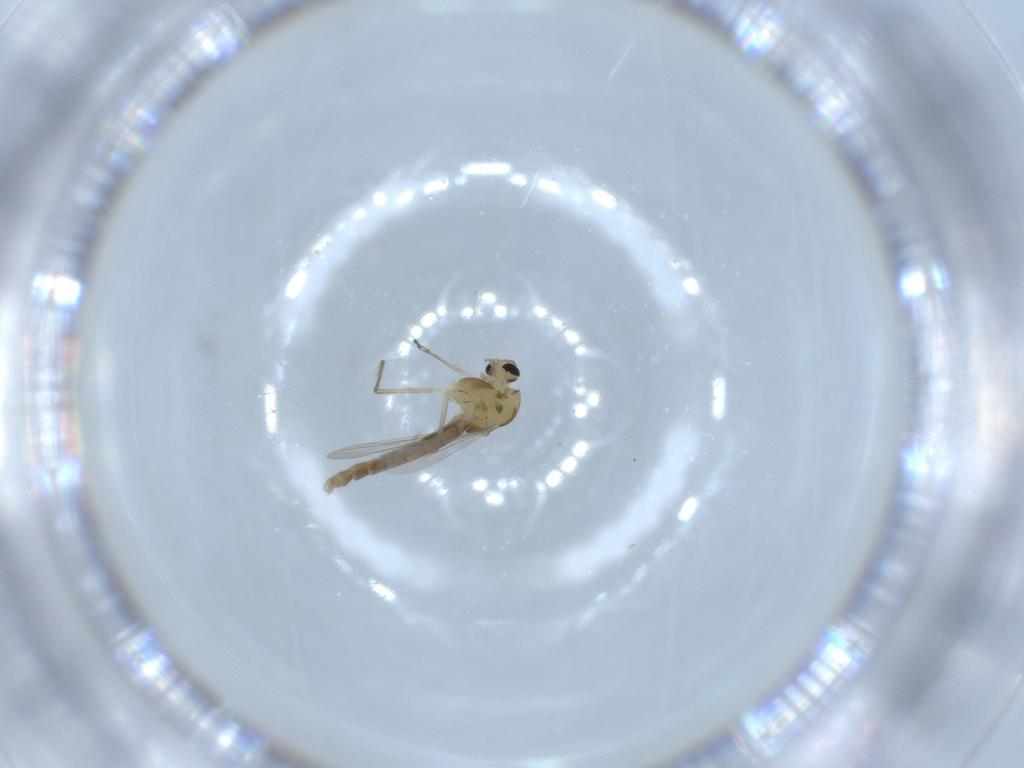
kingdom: Animalia
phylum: Arthropoda
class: Insecta
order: Diptera
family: Chironomidae
